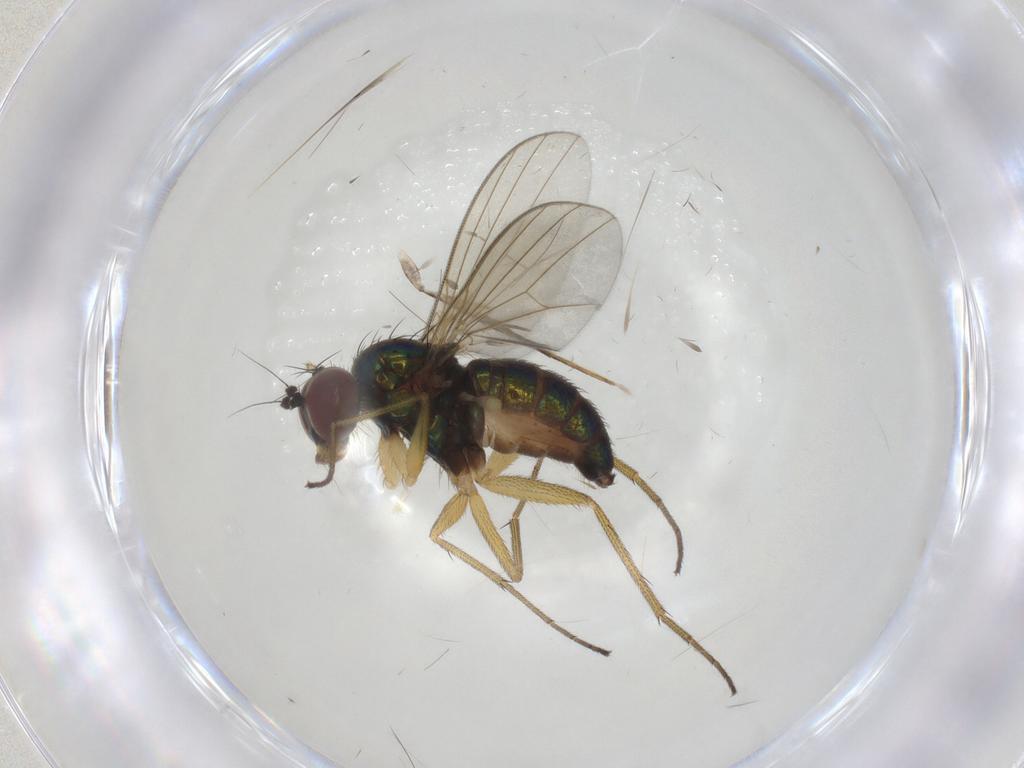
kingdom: Animalia
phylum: Arthropoda
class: Insecta
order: Diptera
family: Dolichopodidae
